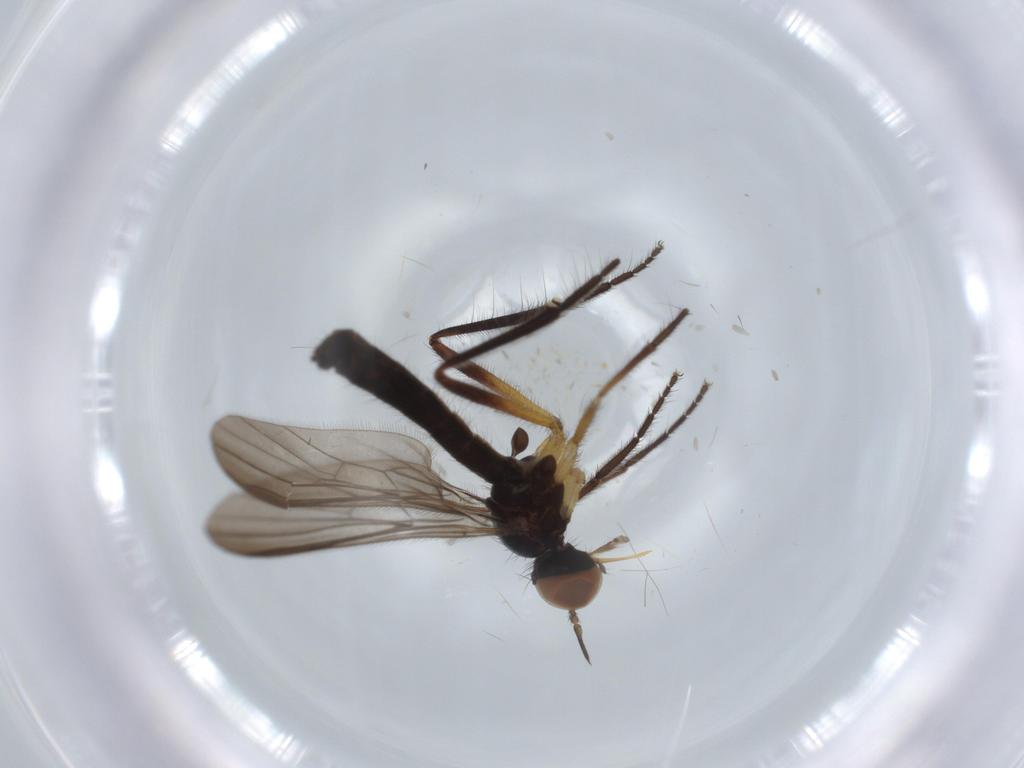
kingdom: Animalia
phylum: Arthropoda
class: Insecta
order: Diptera
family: Empididae
